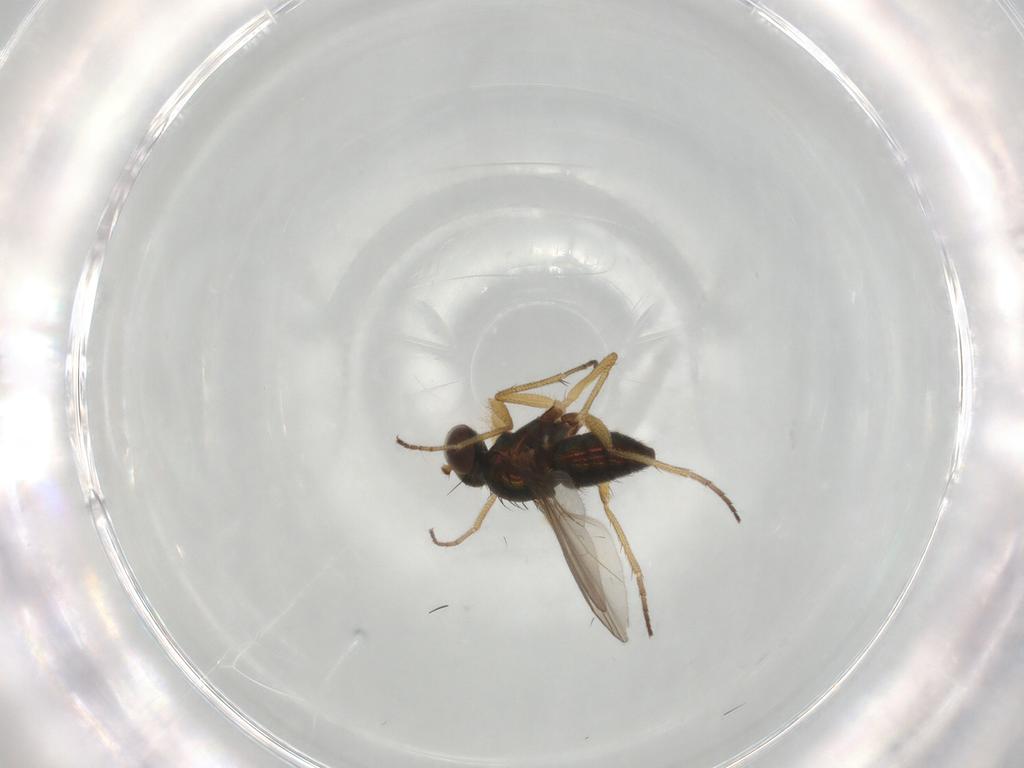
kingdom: Animalia
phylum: Arthropoda
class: Insecta
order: Diptera
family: Dolichopodidae
